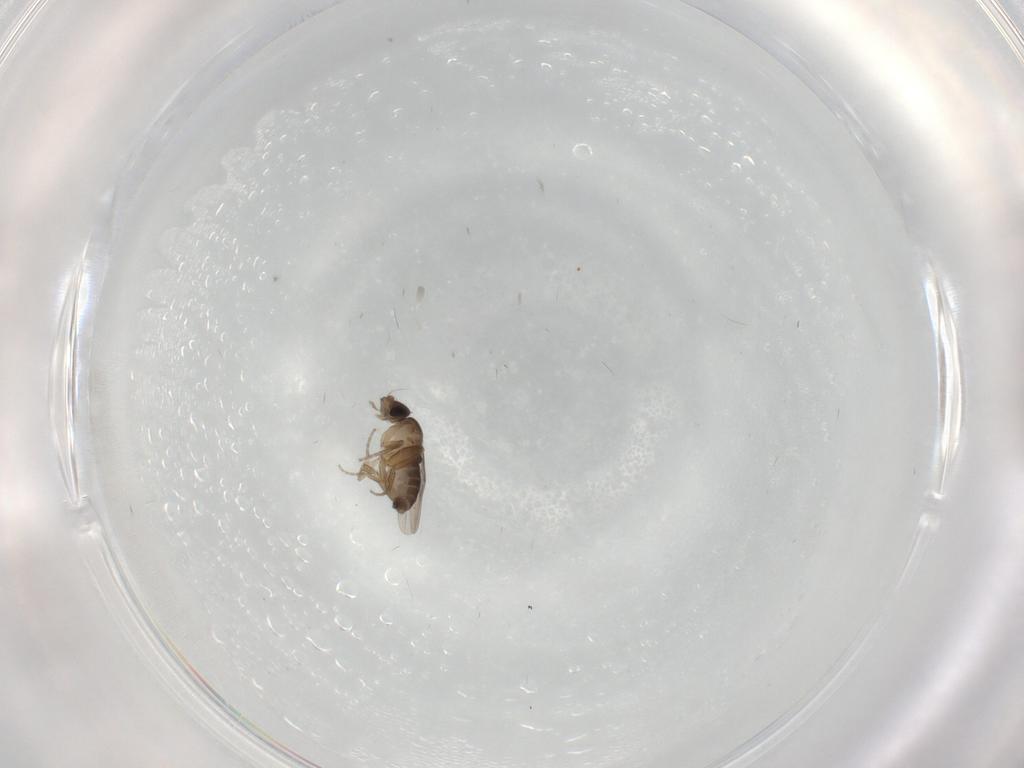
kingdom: Animalia
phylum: Arthropoda
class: Insecta
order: Diptera
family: Phoridae
